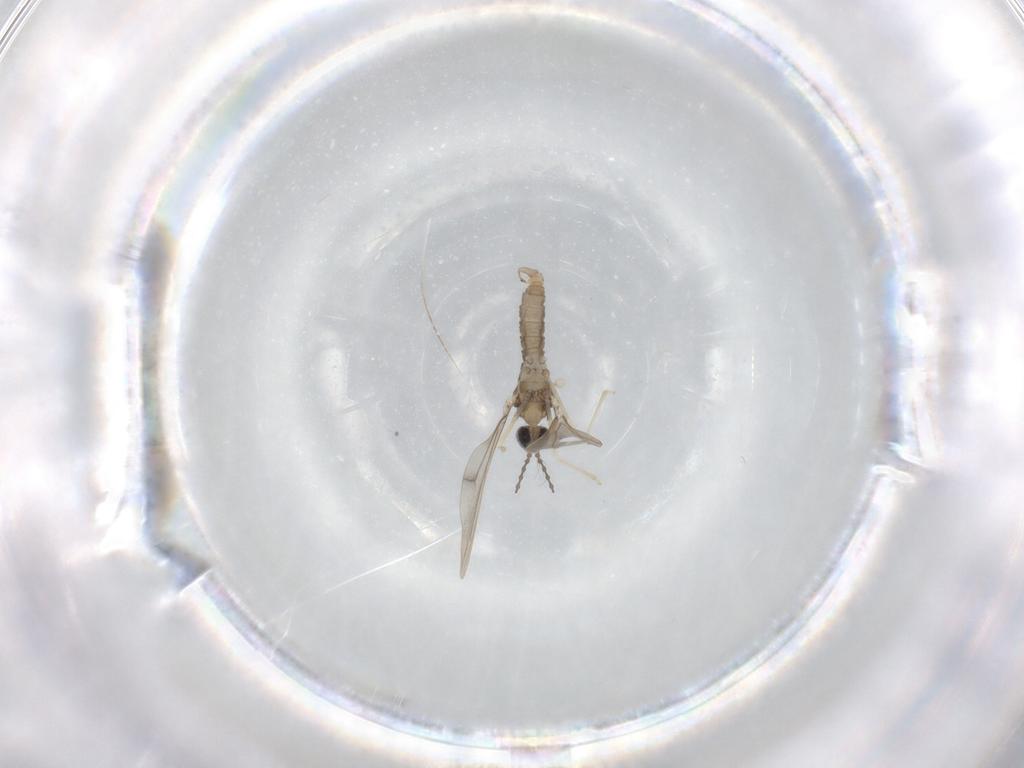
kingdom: Animalia
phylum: Arthropoda
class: Insecta
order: Diptera
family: Cecidomyiidae
